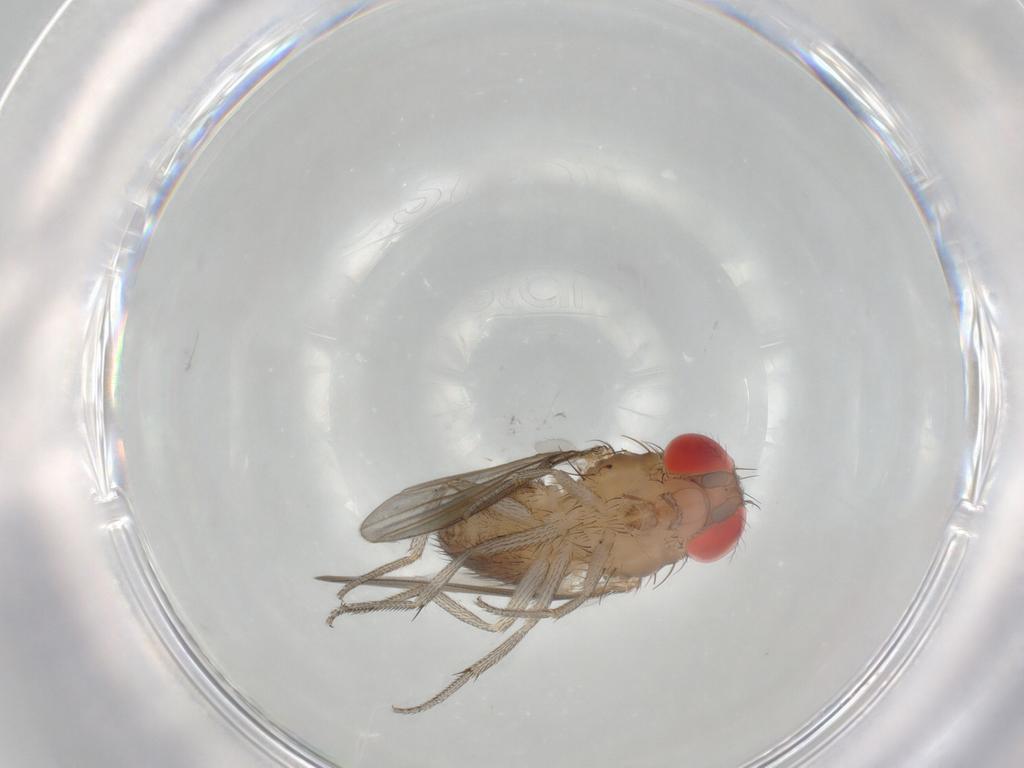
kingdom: Animalia
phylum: Arthropoda
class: Insecta
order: Diptera
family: Drosophilidae
